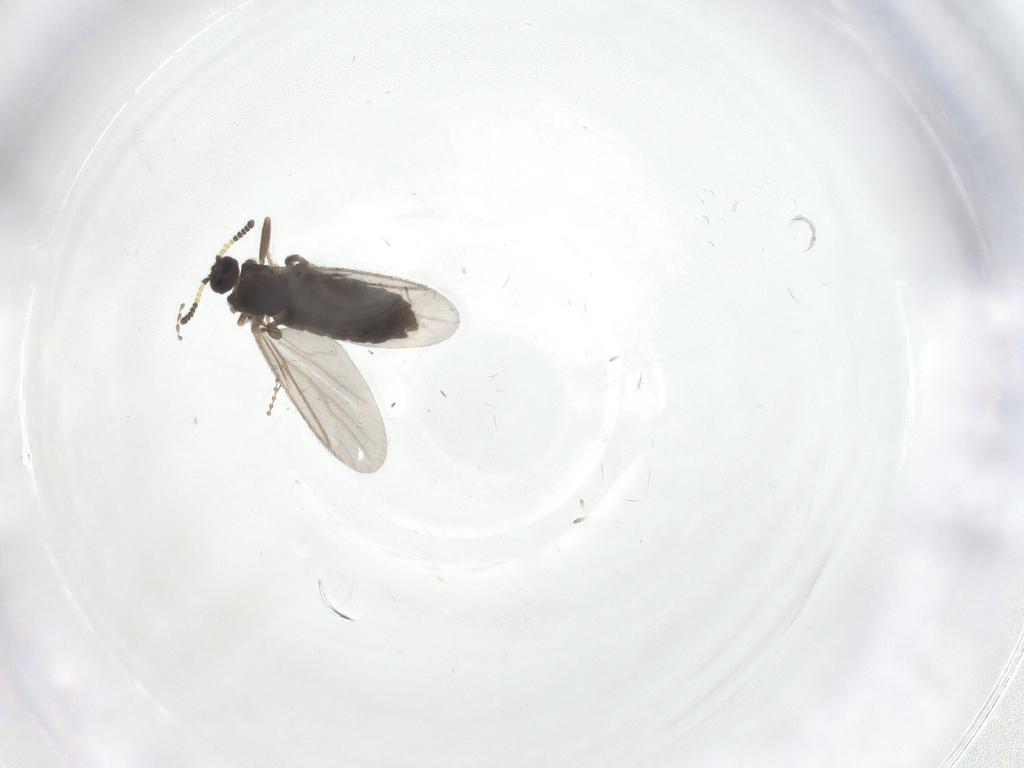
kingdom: Animalia
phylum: Arthropoda
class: Insecta
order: Diptera
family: Scatopsidae
